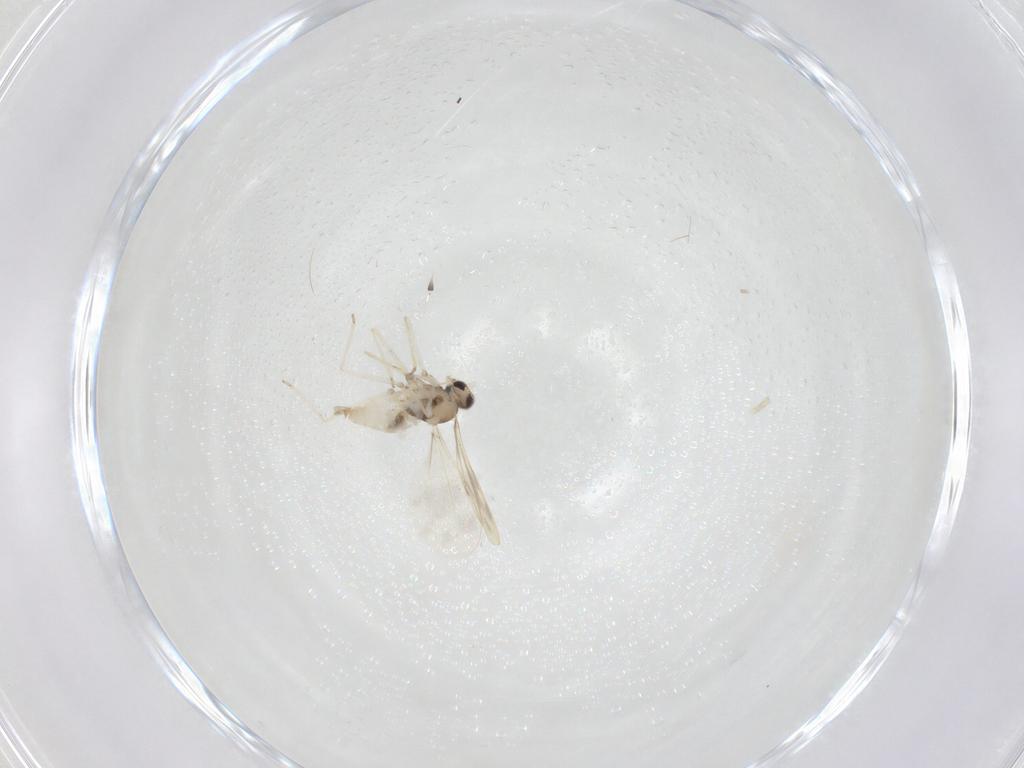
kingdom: Animalia
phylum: Arthropoda
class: Insecta
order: Diptera
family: Cecidomyiidae
